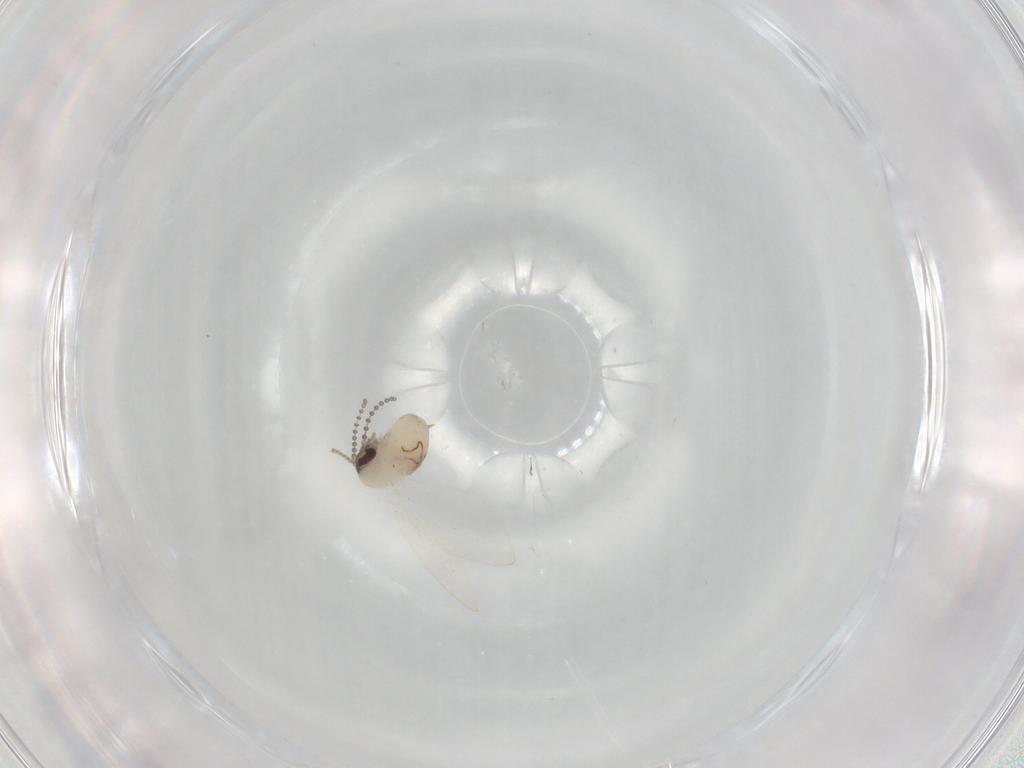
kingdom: Animalia
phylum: Arthropoda
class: Insecta
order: Diptera
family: Psychodidae
